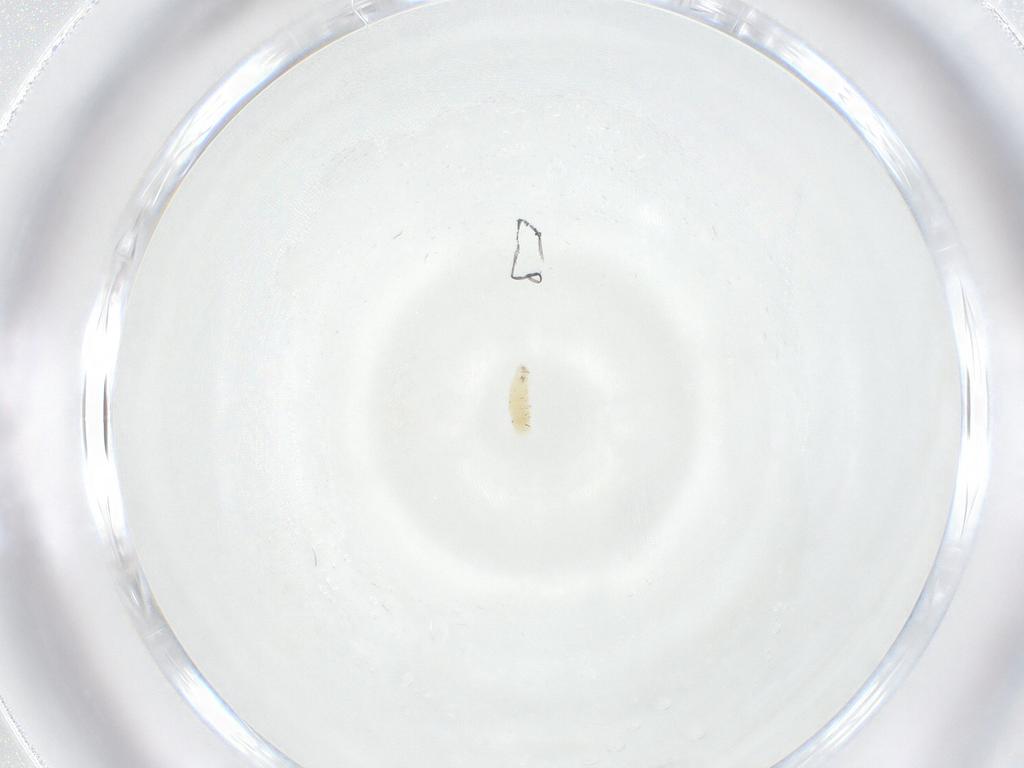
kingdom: Animalia
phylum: Arthropoda
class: Insecta
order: Diptera
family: Sarcophagidae
